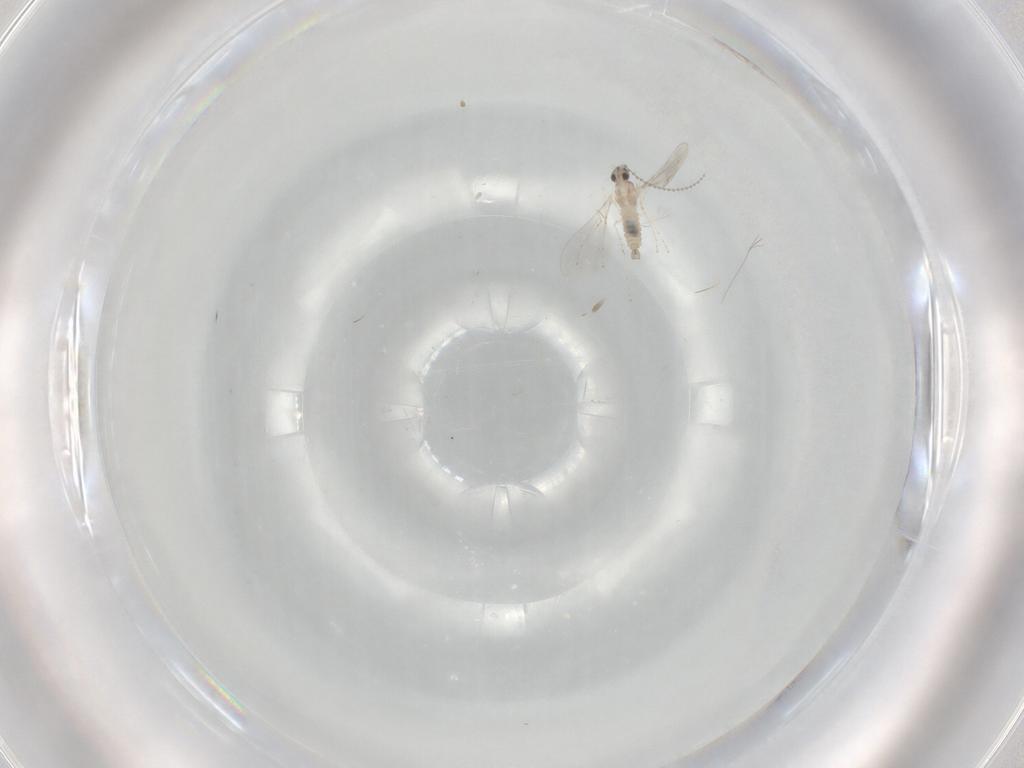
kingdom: Animalia
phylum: Arthropoda
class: Insecta
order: Diptera
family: Cecidomyiidae
